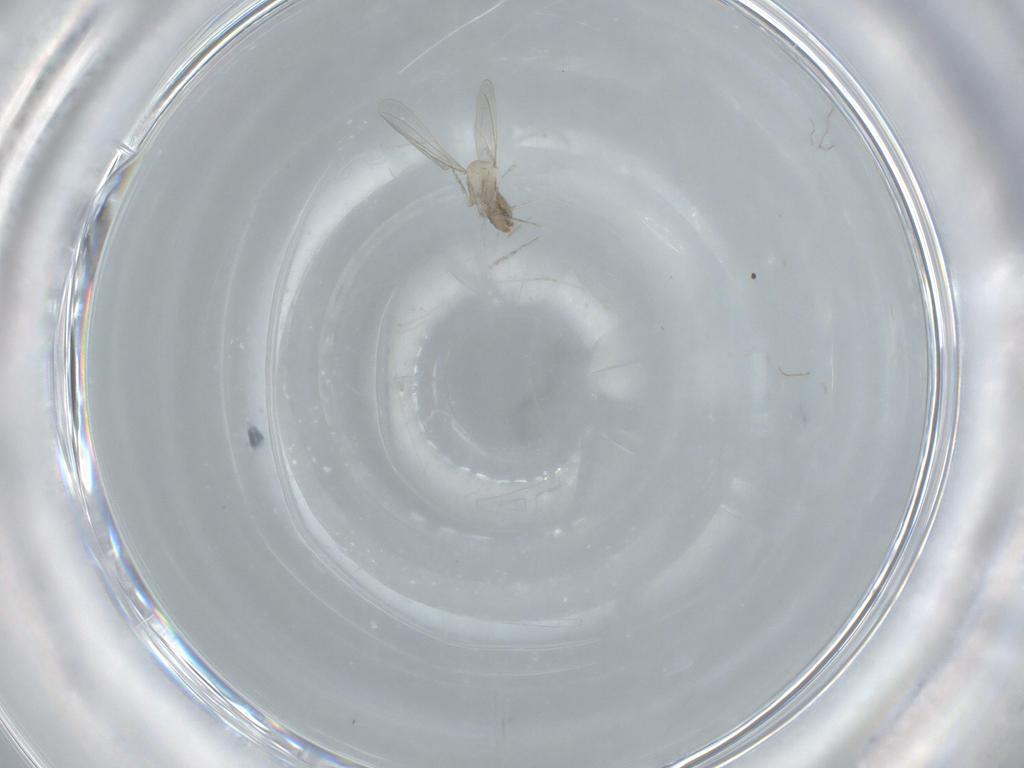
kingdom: Animalia
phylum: Arthropoda
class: Insecta
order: Diptera
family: Cecidomyiidae
